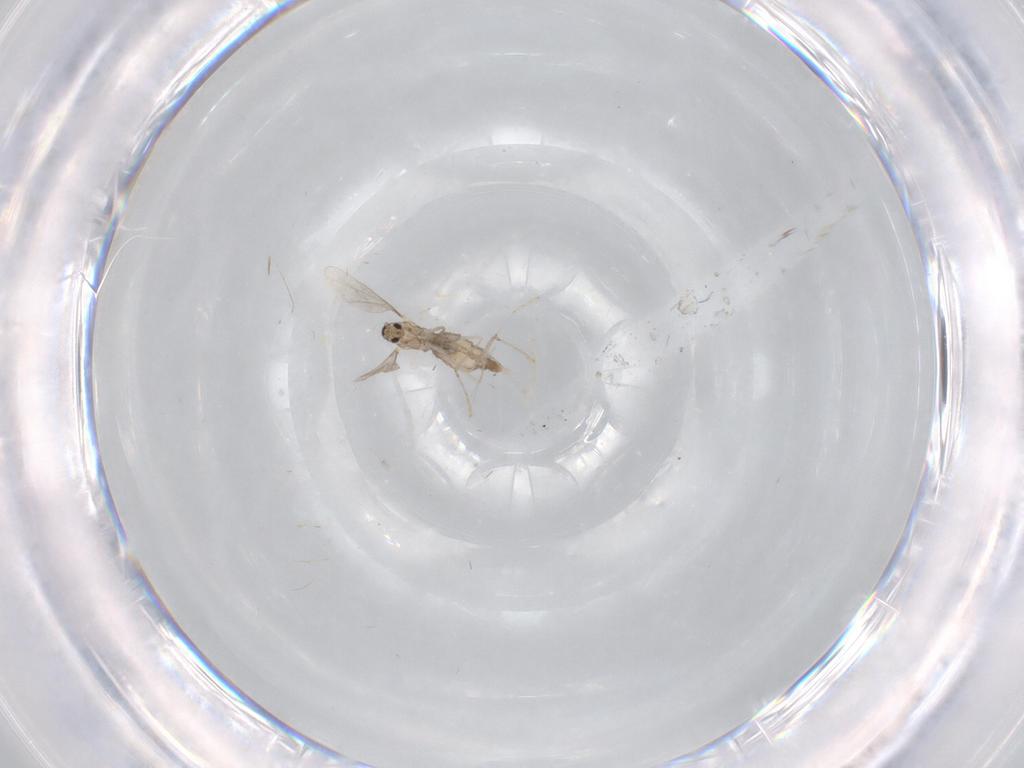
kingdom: Animalia
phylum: Arthropoda
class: Insecta
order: Diptera
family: Cecidomyiidae
